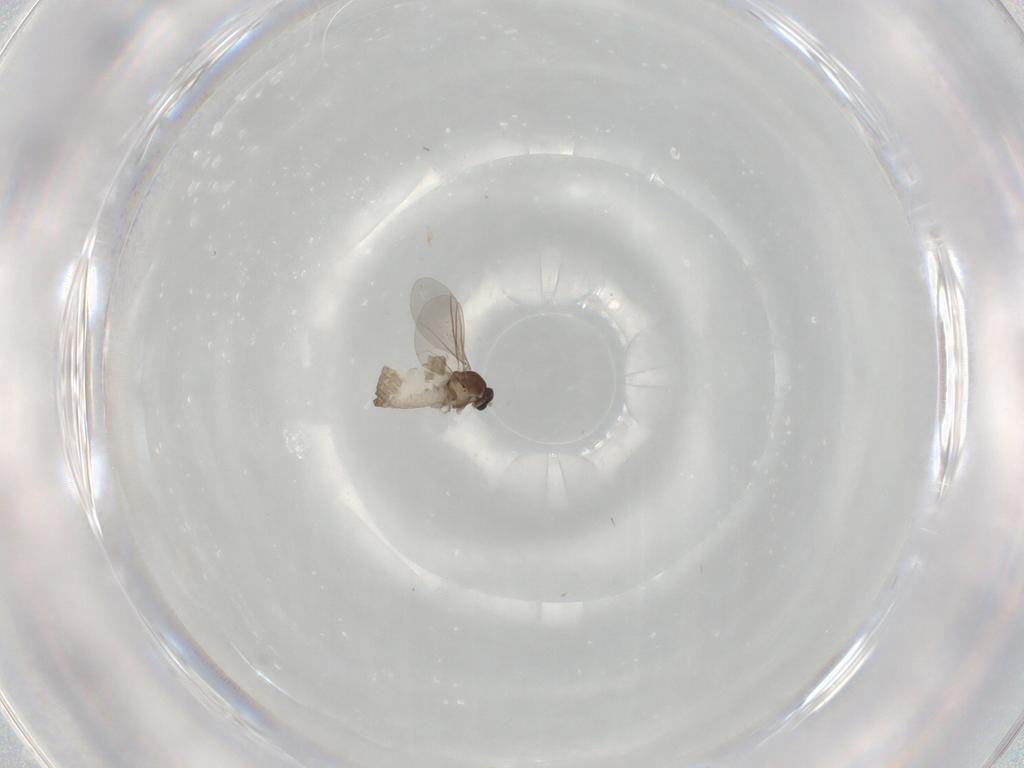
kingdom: Animalia
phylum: Arthropoda
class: Insecta
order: Diptera
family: Cecidomyiidae
